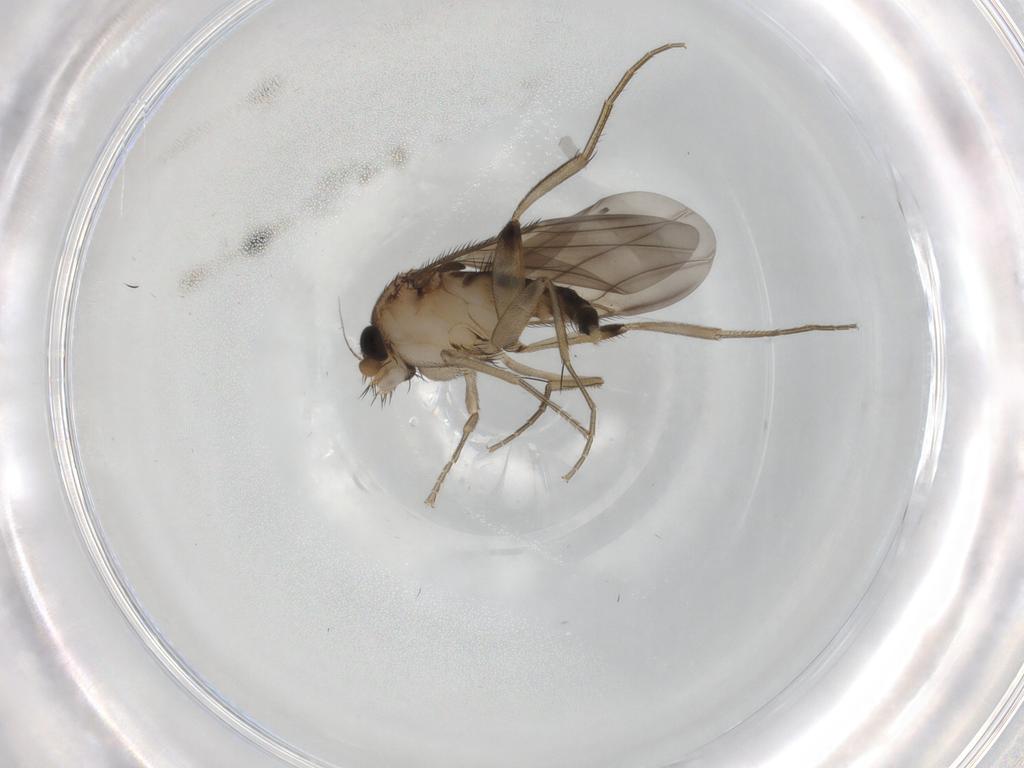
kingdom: Animalia
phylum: Arthropoda
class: Insecta
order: Diptera
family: Phoridae
